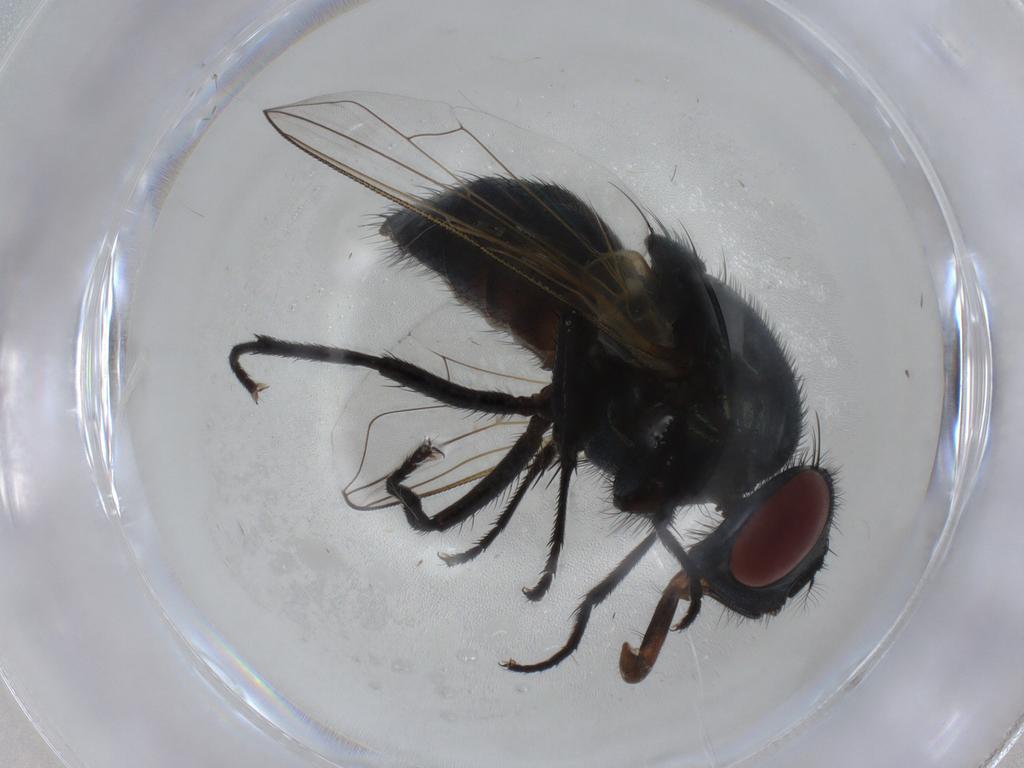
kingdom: Animalia
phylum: Arthropoda
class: Insecta
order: Diptera
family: Muscidae
